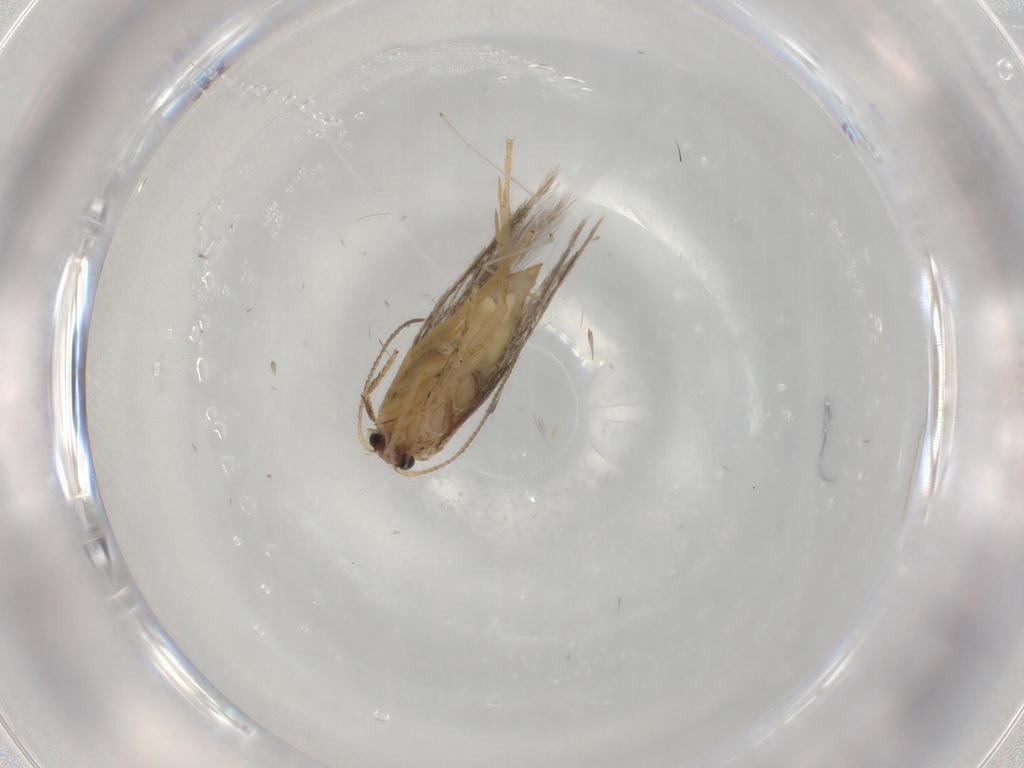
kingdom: Animalia
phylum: Arthropoda
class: Insecta
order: Lepidoptera
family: Nepticulidae
